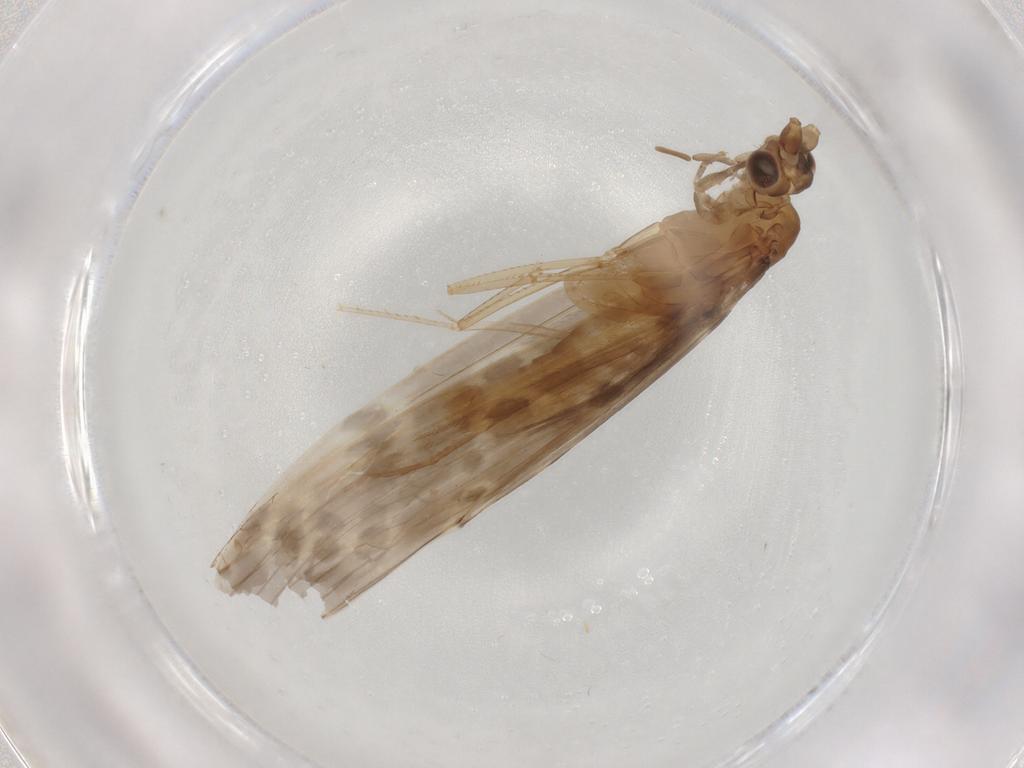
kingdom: Animalia
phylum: Arthropoda
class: Insecta
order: Trichoptera
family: Leptoceridae
